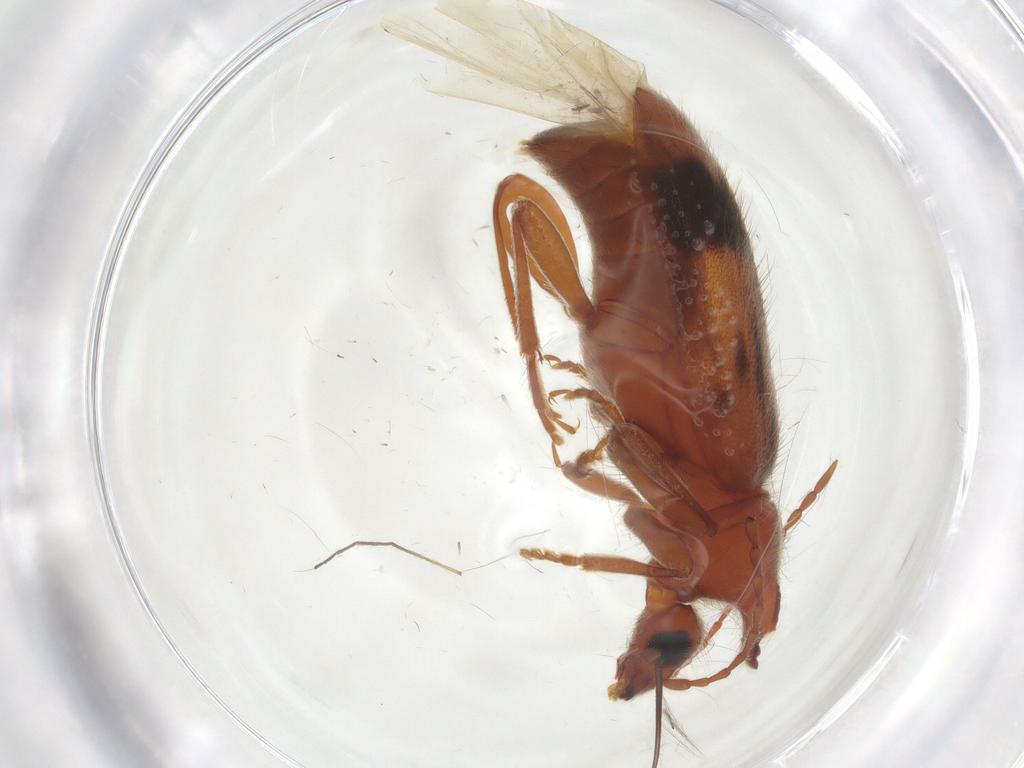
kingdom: Animalia
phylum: Arthropoda
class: Insecta
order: Coleoptera
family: Anthicidae
